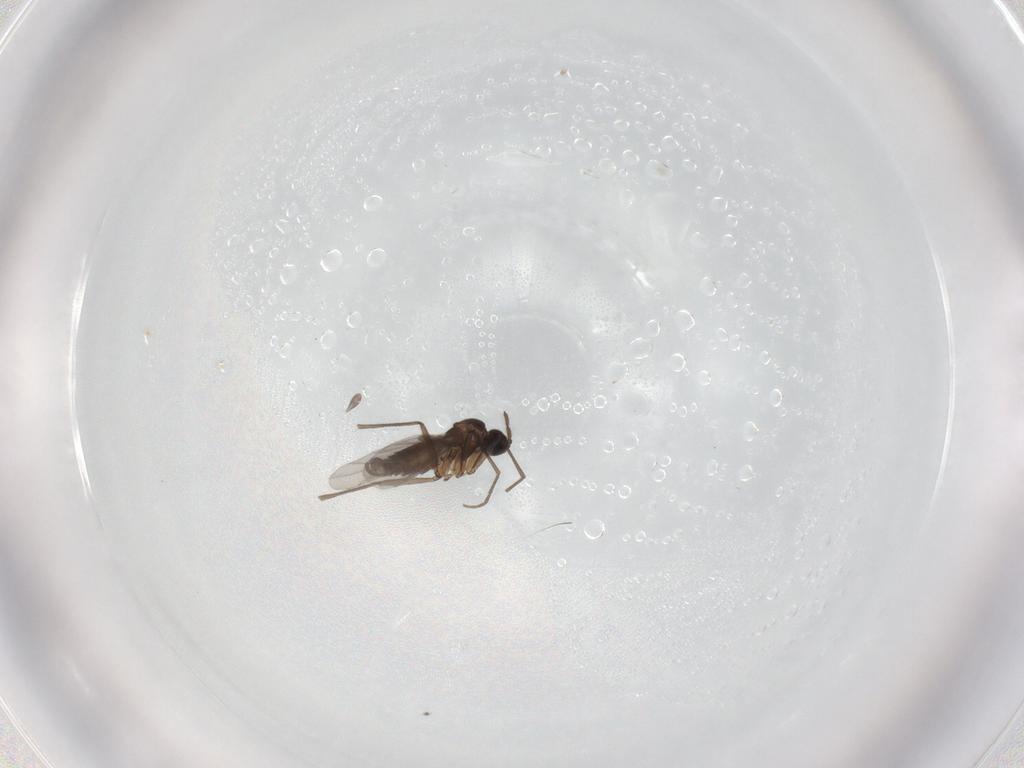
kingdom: Animalia
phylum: Arthropoda
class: Insecta
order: Diptera
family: Sciaridae
